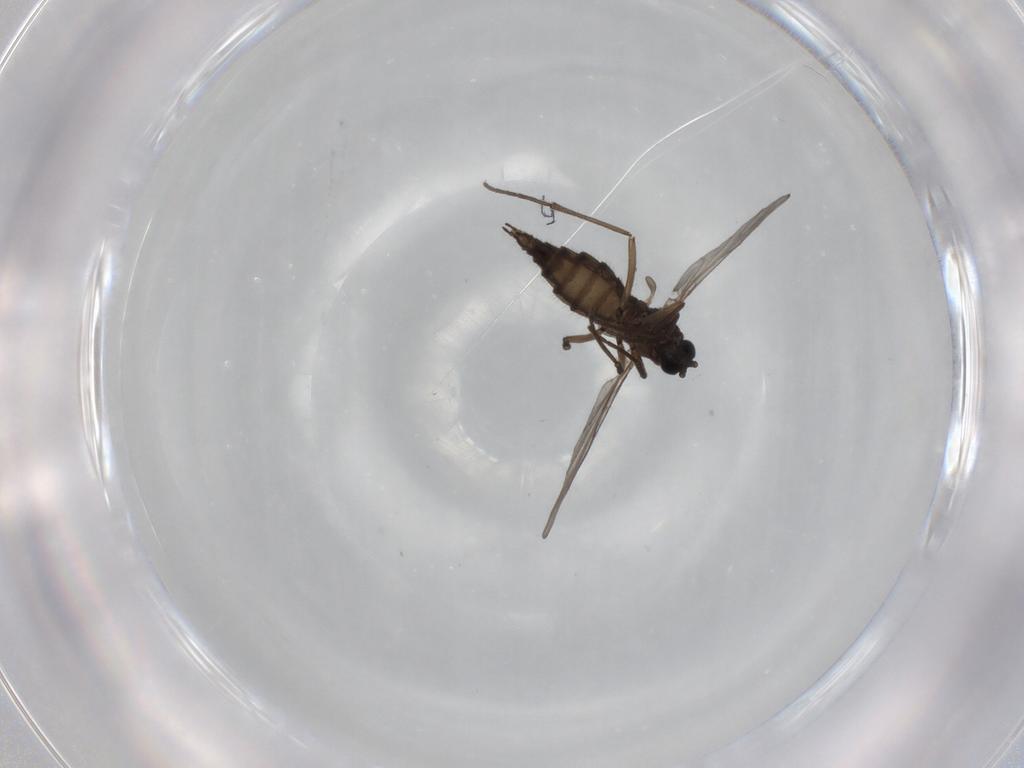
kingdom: Animalia
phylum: Arthropoda
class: Insecta
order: Diptera
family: Sciaridae
